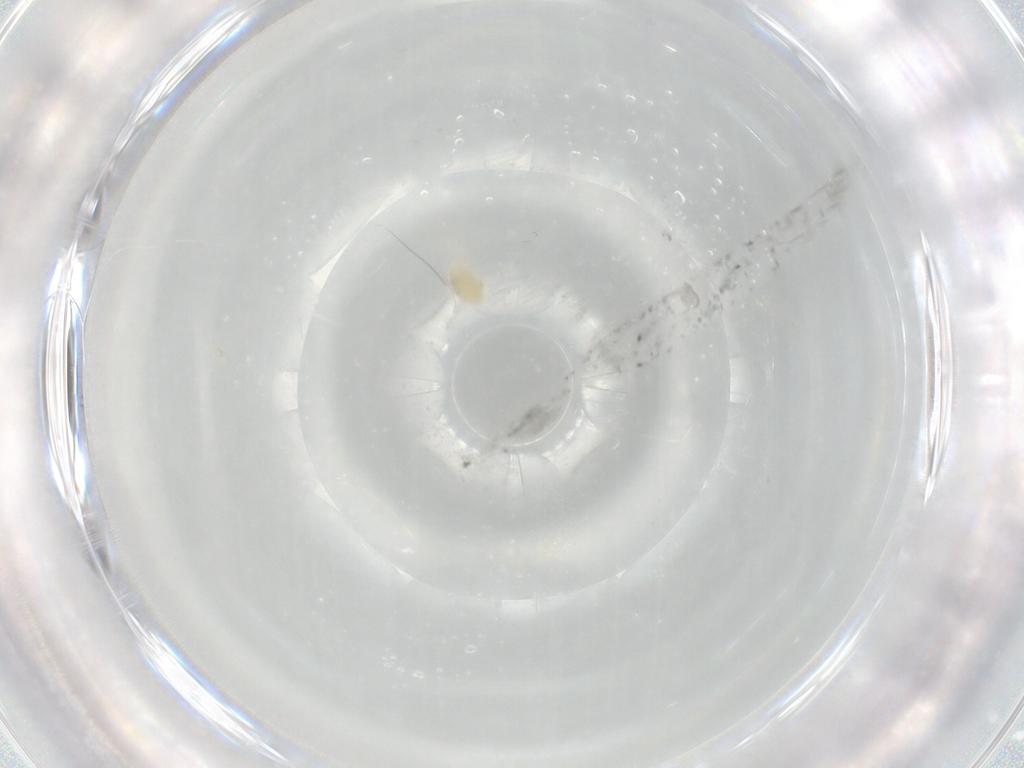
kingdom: Animalia
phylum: Arthropoda
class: Arachnida
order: Trombidiformes
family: Eupodidae
